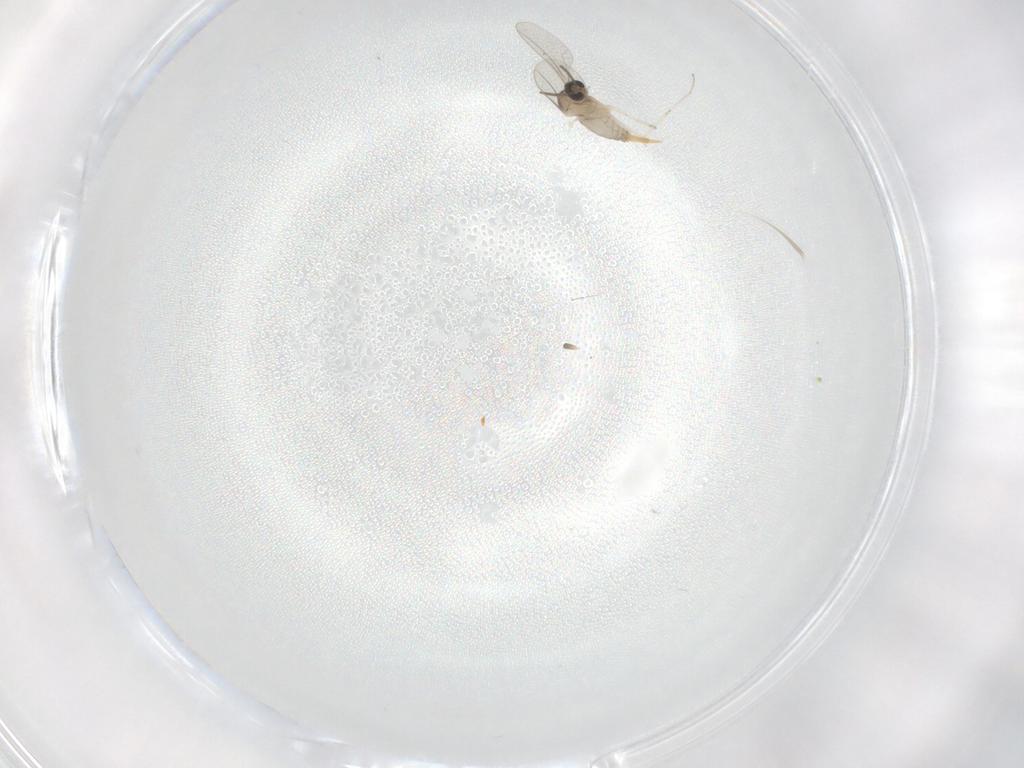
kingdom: Animalia
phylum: Arthropoda
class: Insecta
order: Diptera
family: Cecidomyiidae
